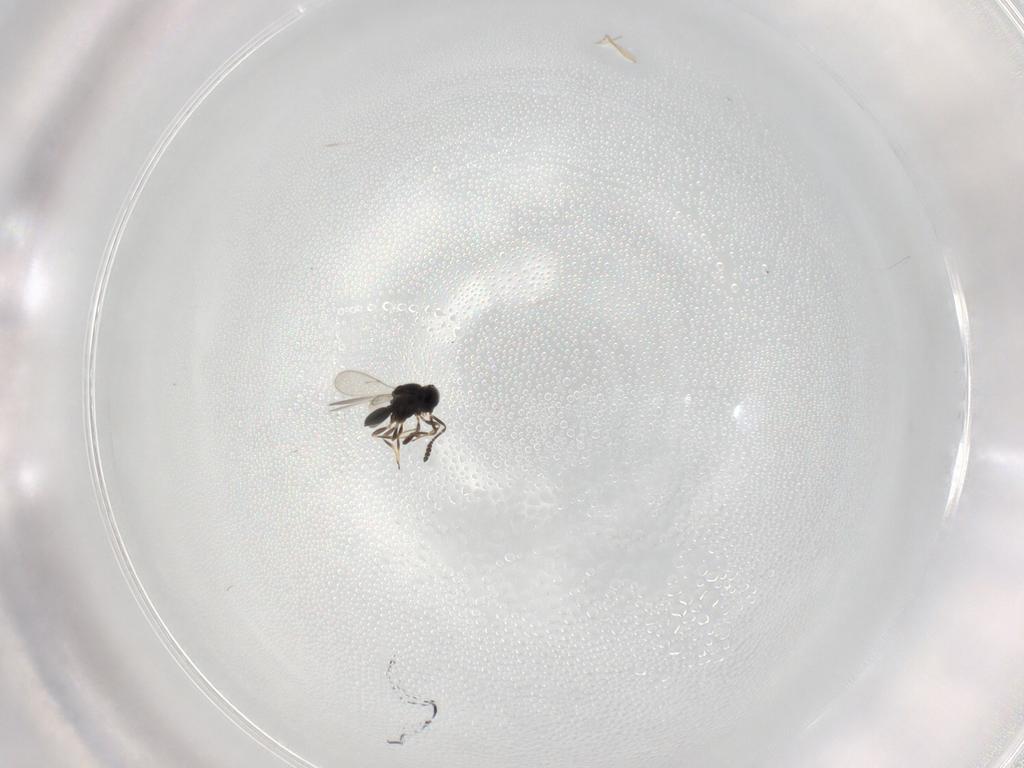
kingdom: Animalia
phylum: Arthropoda
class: Insecta
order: Hymenoptera
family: Scelionidae
